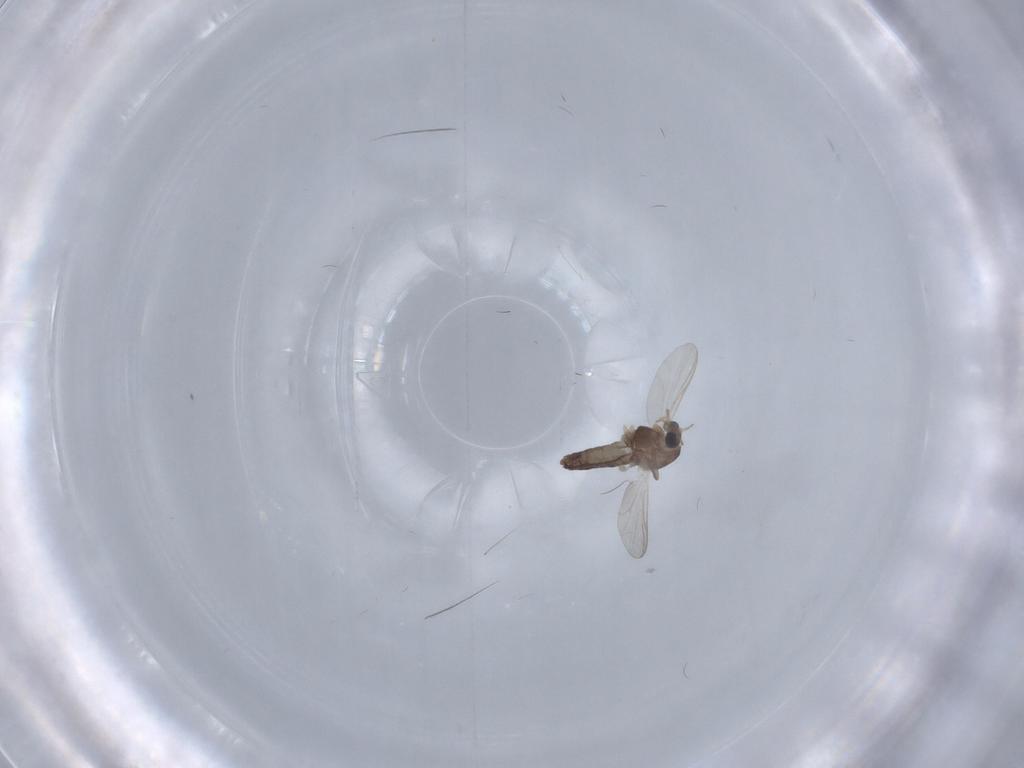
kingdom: Animalia
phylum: Arthropoda
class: Insecta
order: Diptera
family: Chironomidae
